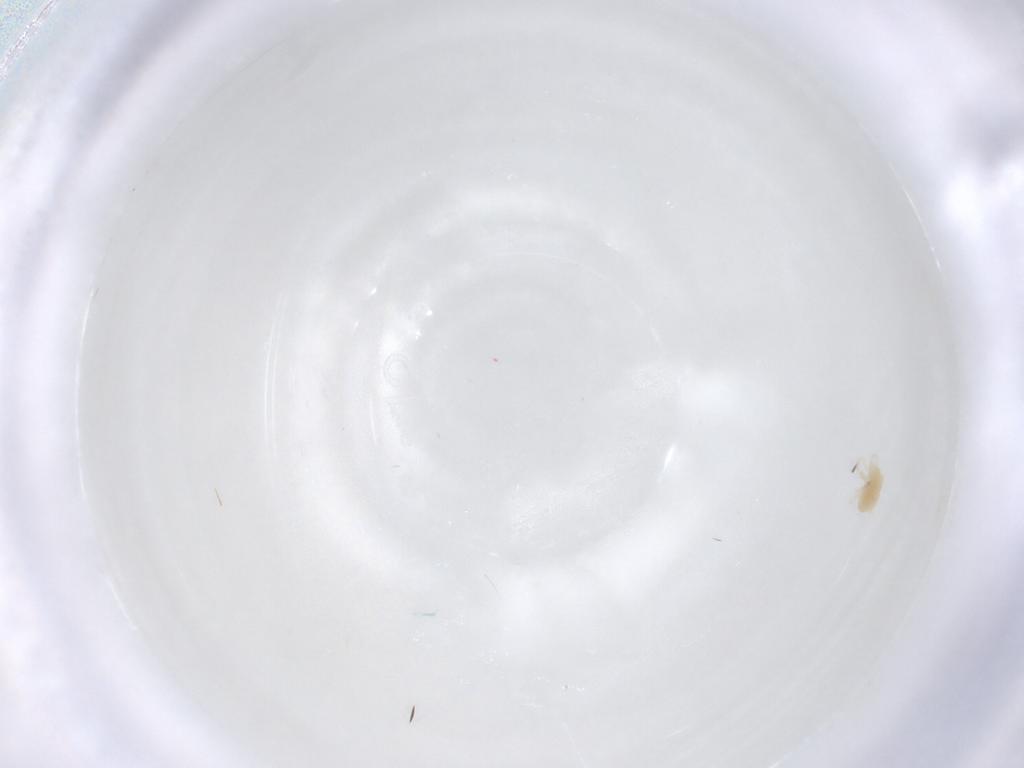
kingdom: Animalia
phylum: Arthropoda
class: Arachnida
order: Trombidiformes
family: Tetranychidae
